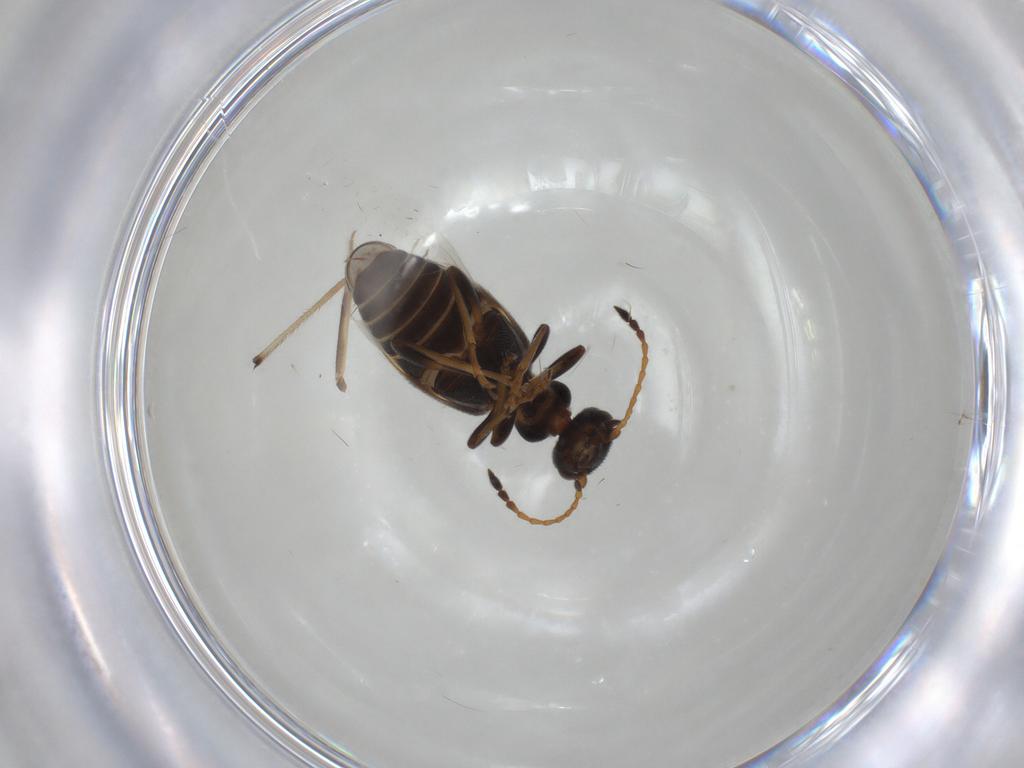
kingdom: Animalia
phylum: Arthropoda
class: Insecta
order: Coleoptera
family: Anthicidae
